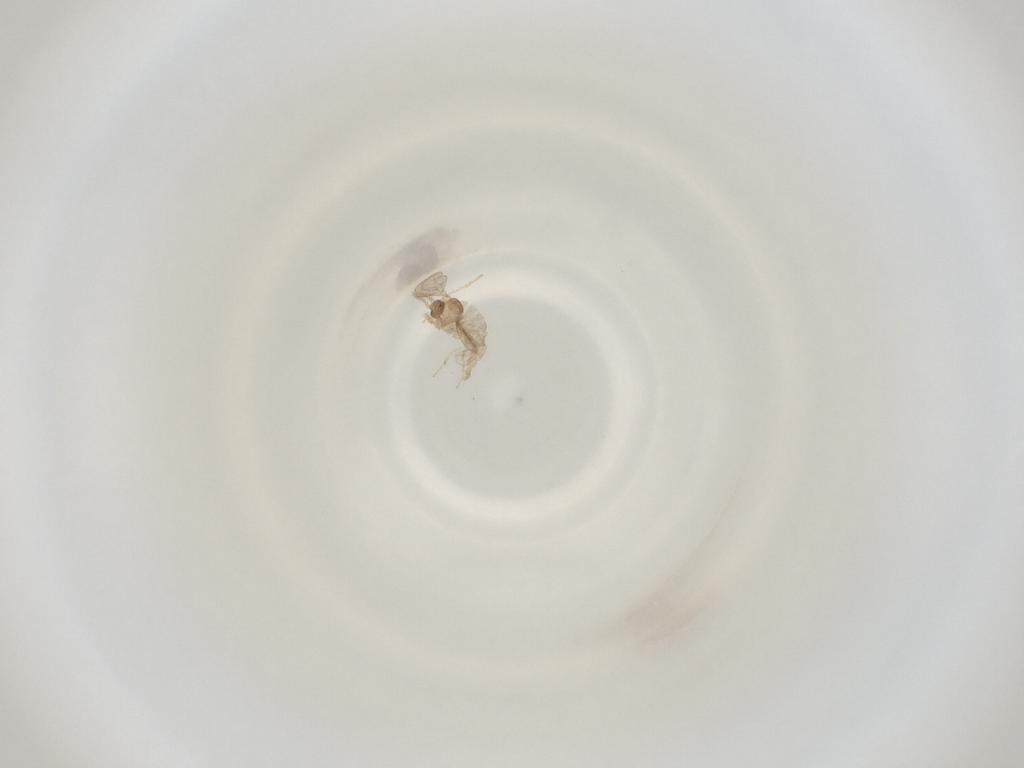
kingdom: Animalia
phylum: Arthropoda
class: Insecta
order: Diptera
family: Cecidomyiidae
